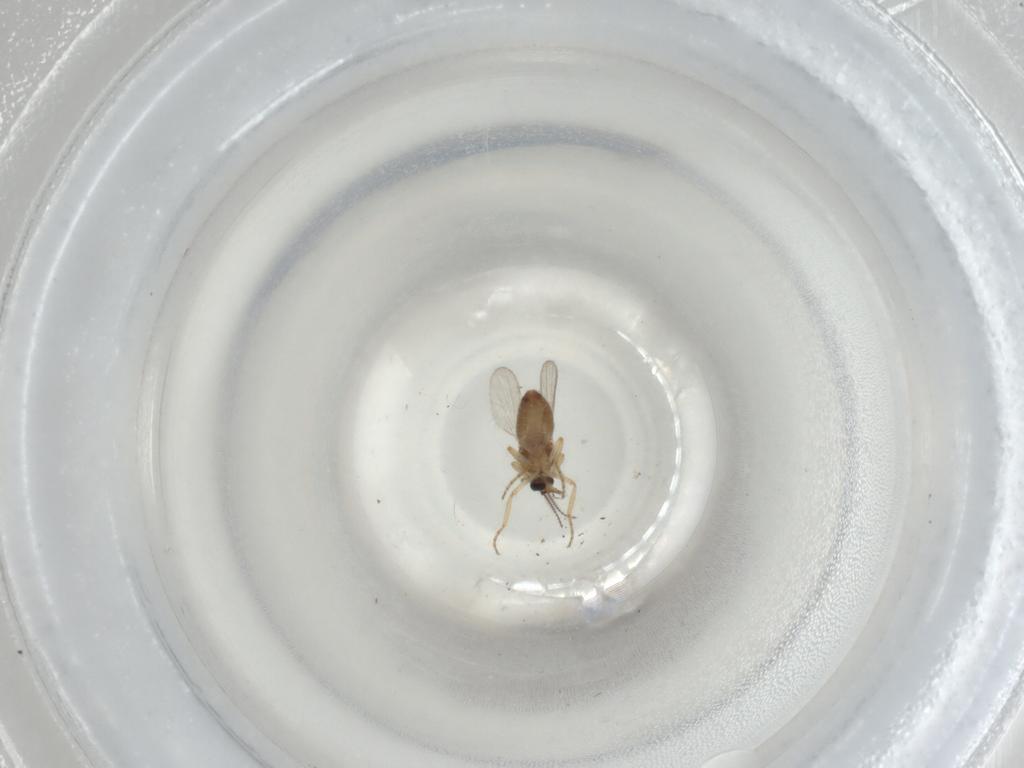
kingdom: Animalia
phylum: Arthropoda
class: Insecta
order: Diptera
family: Ceratopogonidae
